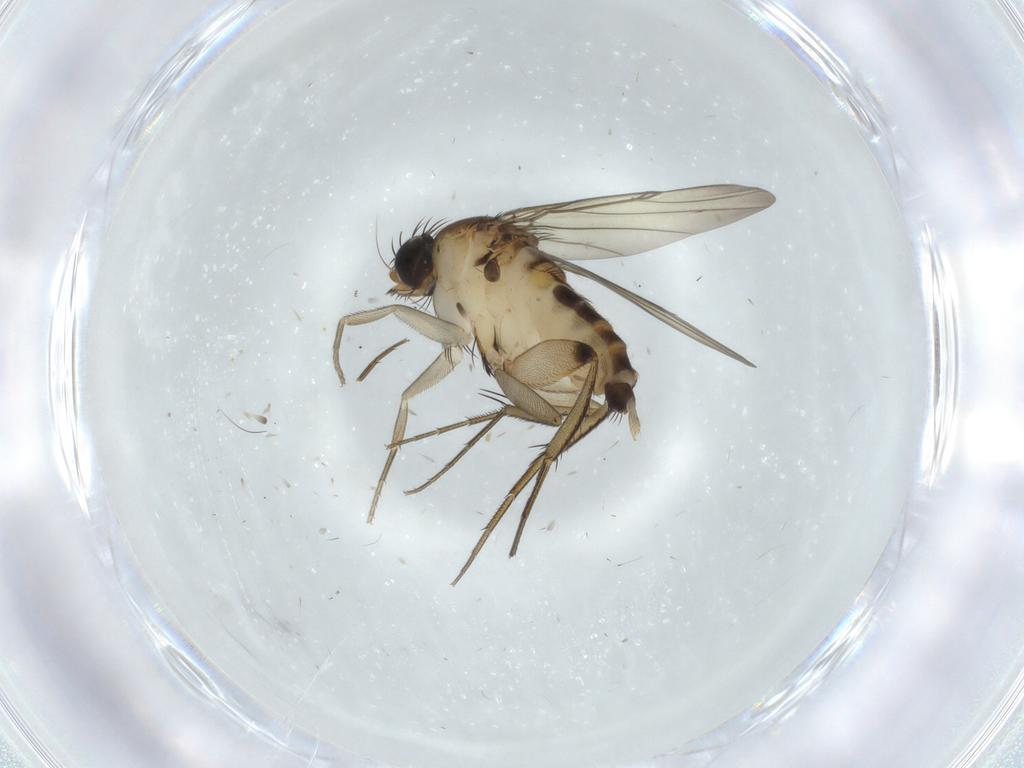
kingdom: Animalia
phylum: Arthropoda
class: Insecta
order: Diptera
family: Phoridae
